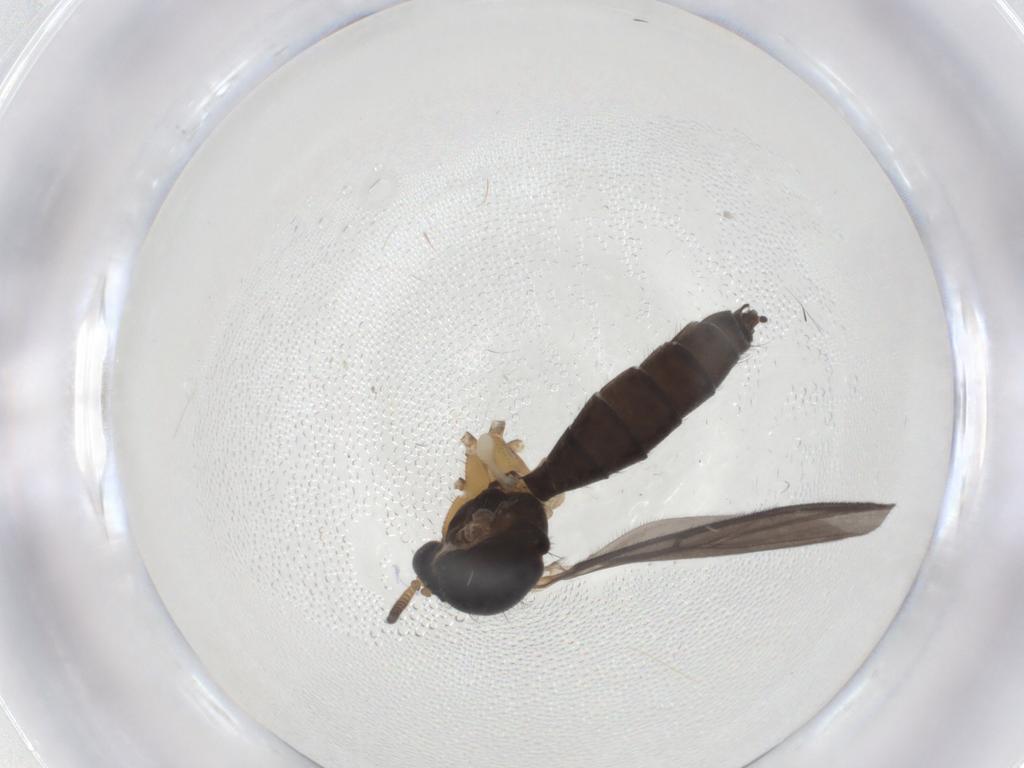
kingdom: Animalia
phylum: Arthropoda
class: Insecta
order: Diptera
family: Mycetophilidae
